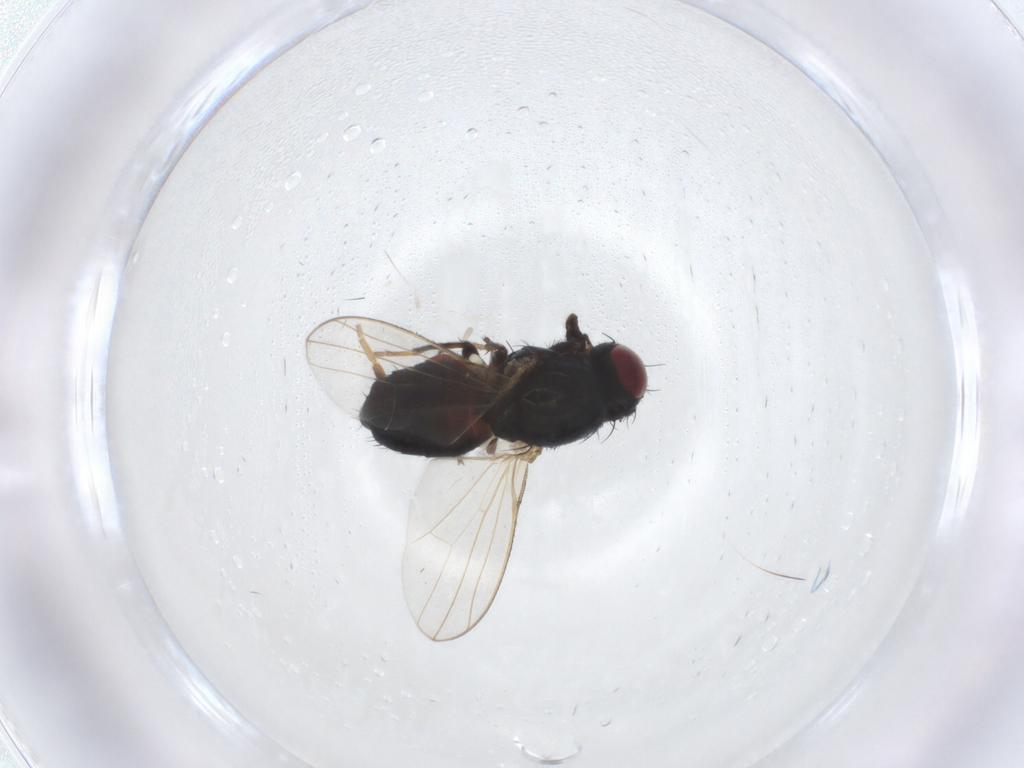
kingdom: Animalia
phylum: Arthropoda
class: Insecta
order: Diptera
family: Carnidae
